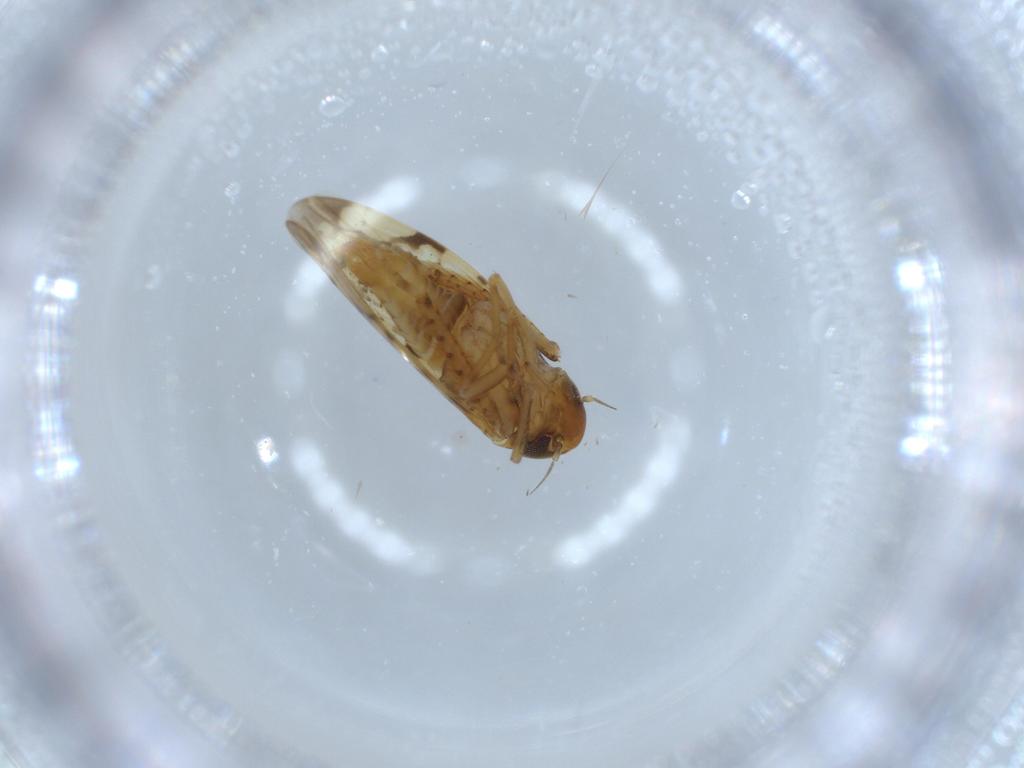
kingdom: Animalia
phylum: Arthropoda
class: Insecta
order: Hemiptera
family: Cicadellidae
